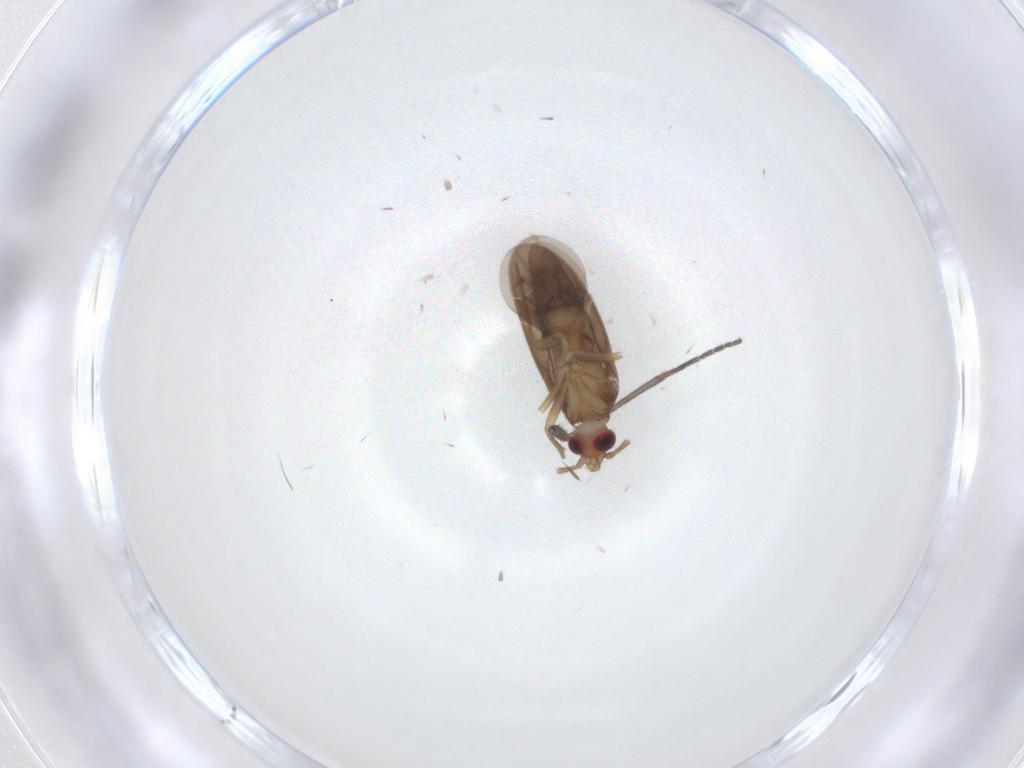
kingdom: Animalia
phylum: Arthropoda
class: Insecta
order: Hemiptera
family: Ceratocombidae
